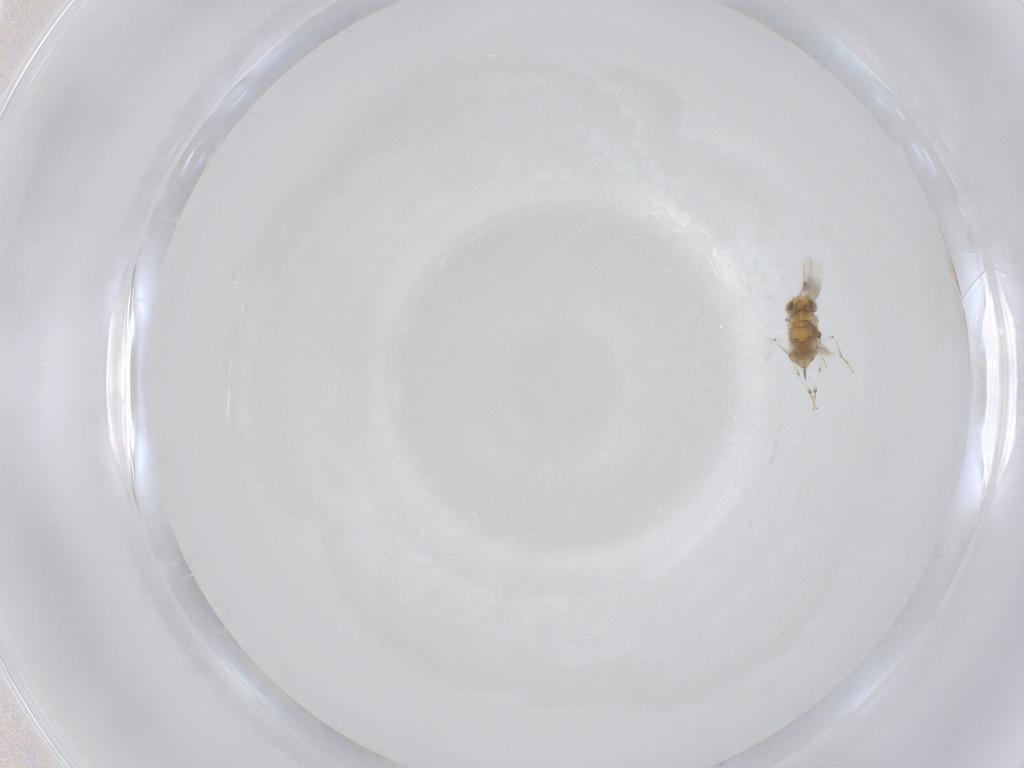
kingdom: Animalia
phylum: Arthropoda
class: Insecta
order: Hymenoptera
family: Aphelinidae
